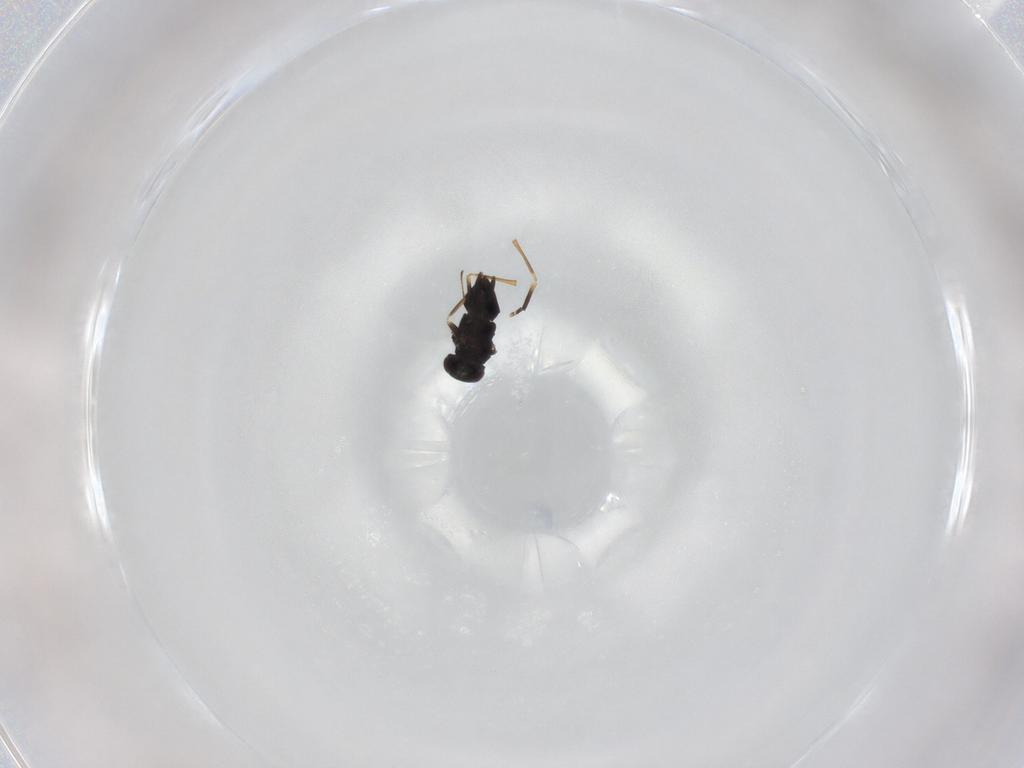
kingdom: Animalia
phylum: Arthropoda
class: Insecta
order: Hymenoptera
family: Encyrtidae
